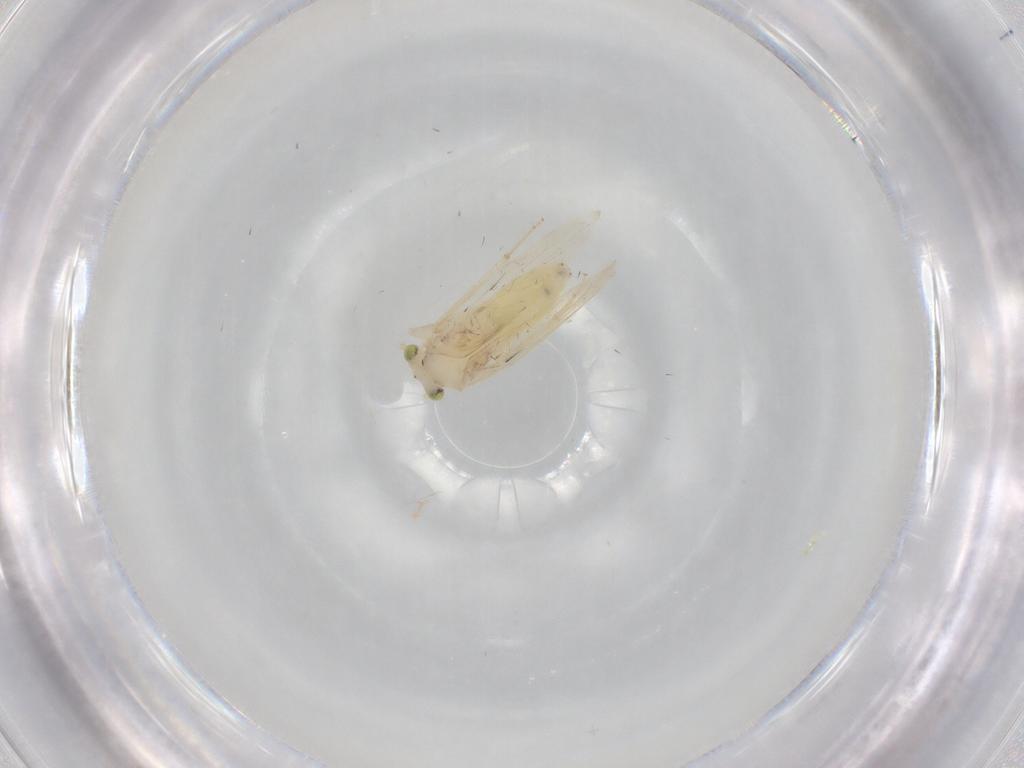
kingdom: Animalia
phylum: Arthropoda
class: Insecta
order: Psocodea
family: Lepidopsocidae
